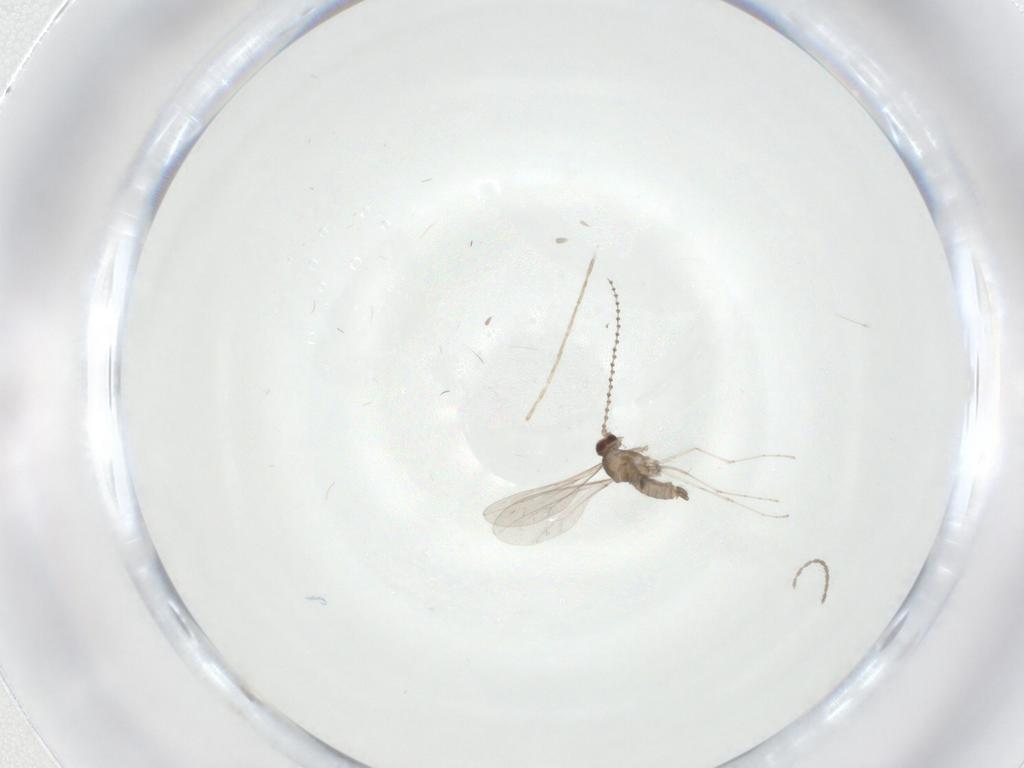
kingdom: Animalia
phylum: Arthropoda
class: Insecta
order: Diptera
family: Cecidomyiidae
